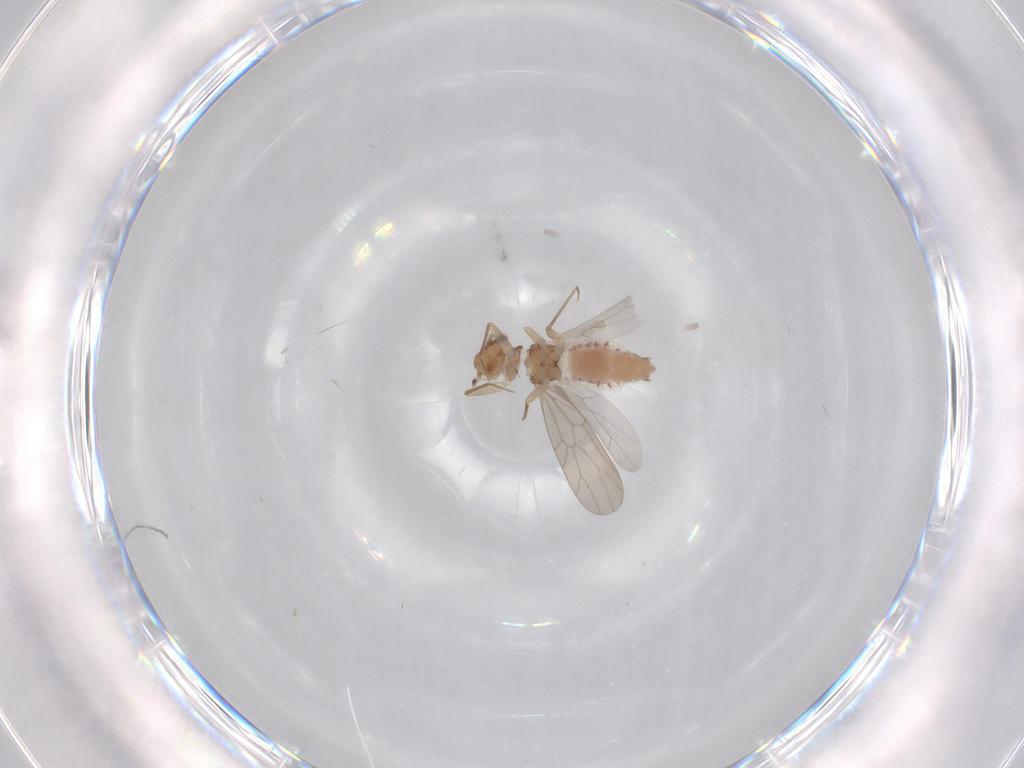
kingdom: Animalia
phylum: Arthropoda
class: Insecta
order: Psocodea
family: Lepidopsocidae
